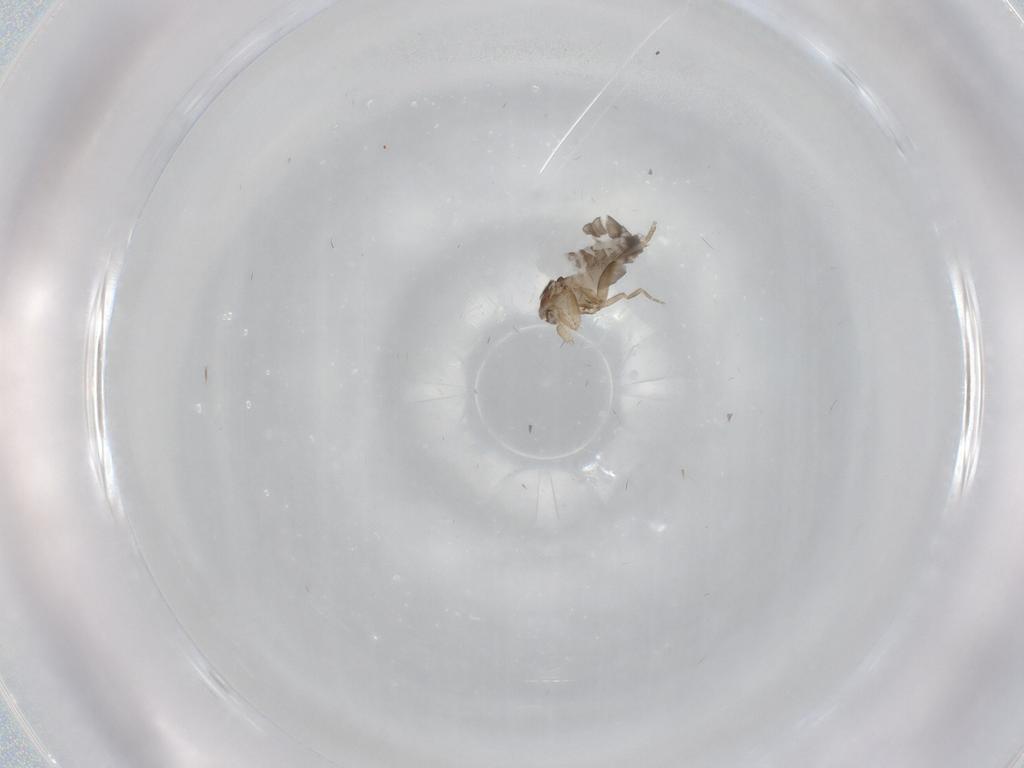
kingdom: Animalia
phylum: Arthropoda
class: Insecta
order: Diptera
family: Phoridae
